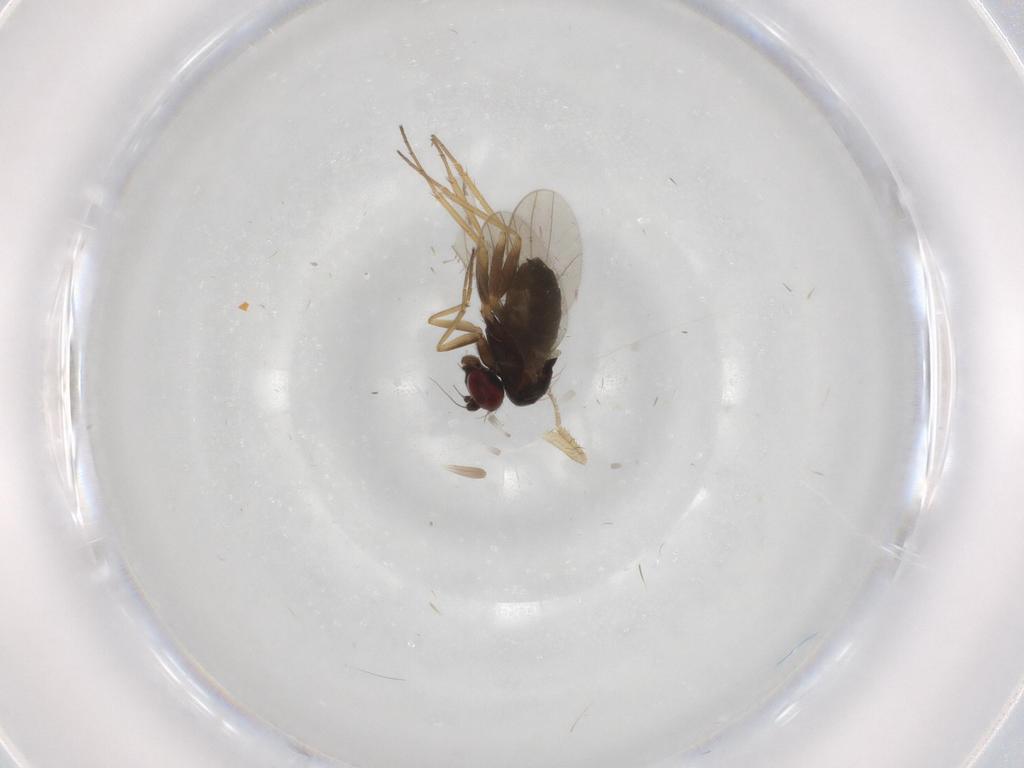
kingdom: Animalia
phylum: Arthropoda
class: Insecta
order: Diptera
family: Drosophilidae
